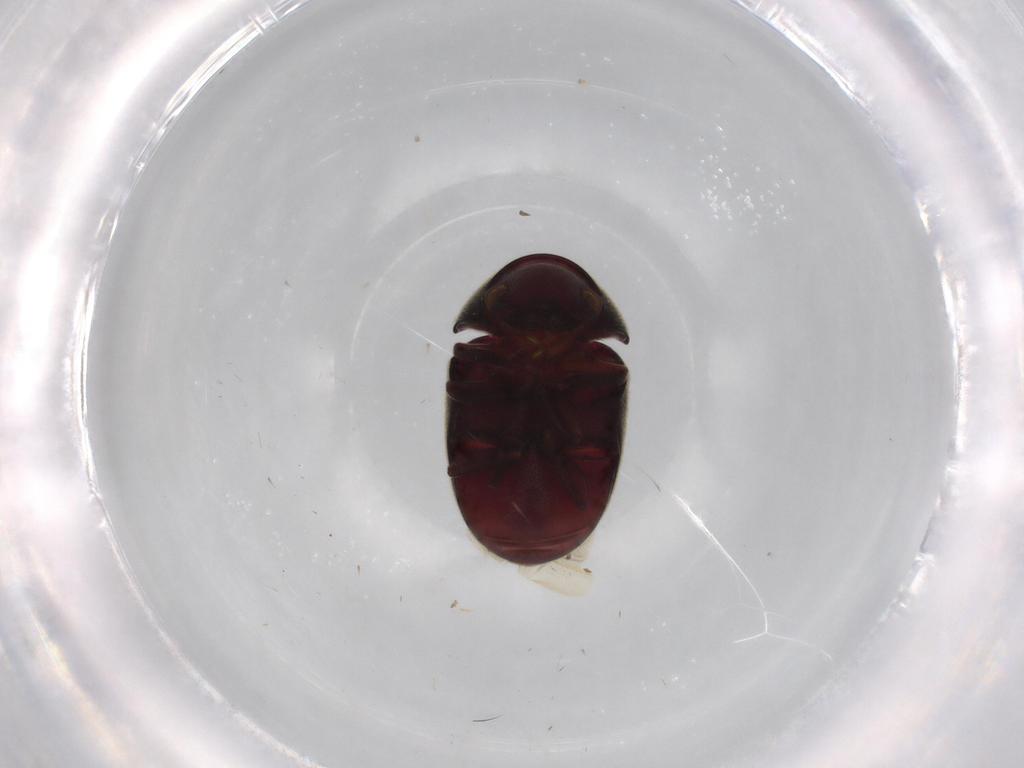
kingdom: Animalia
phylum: Arthropoda
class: Insecta
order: Coleoptera
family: Ptinidae
